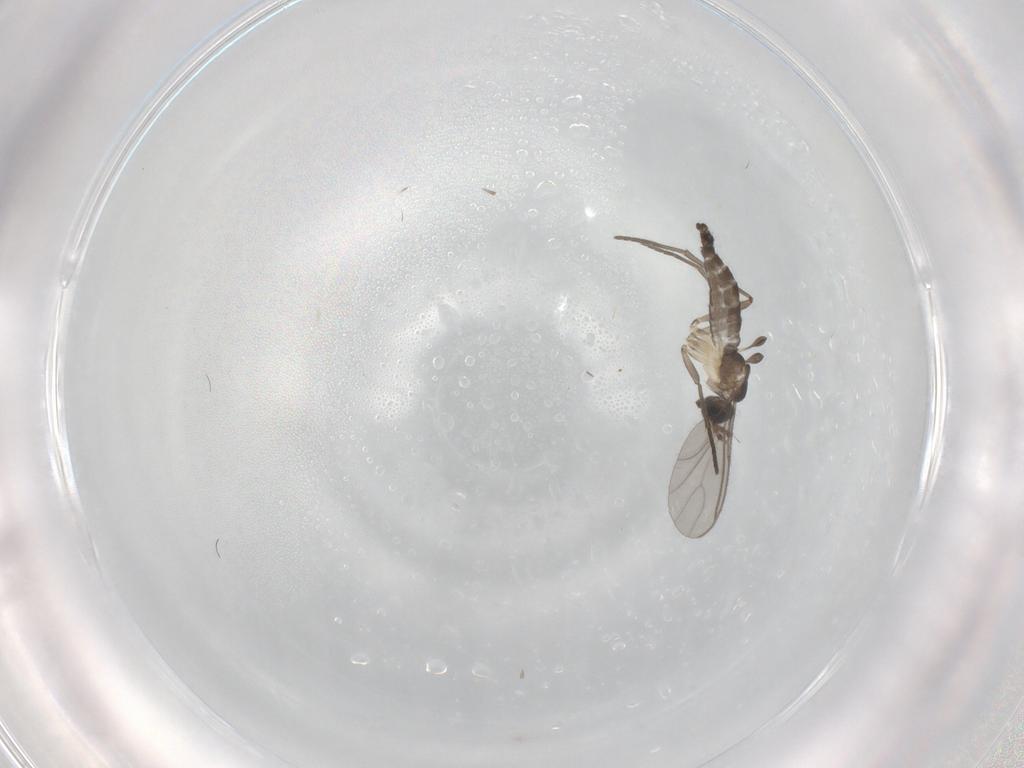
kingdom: Animalia
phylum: Arthropoda
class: Insecta
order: Diptera
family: Sciaridae
